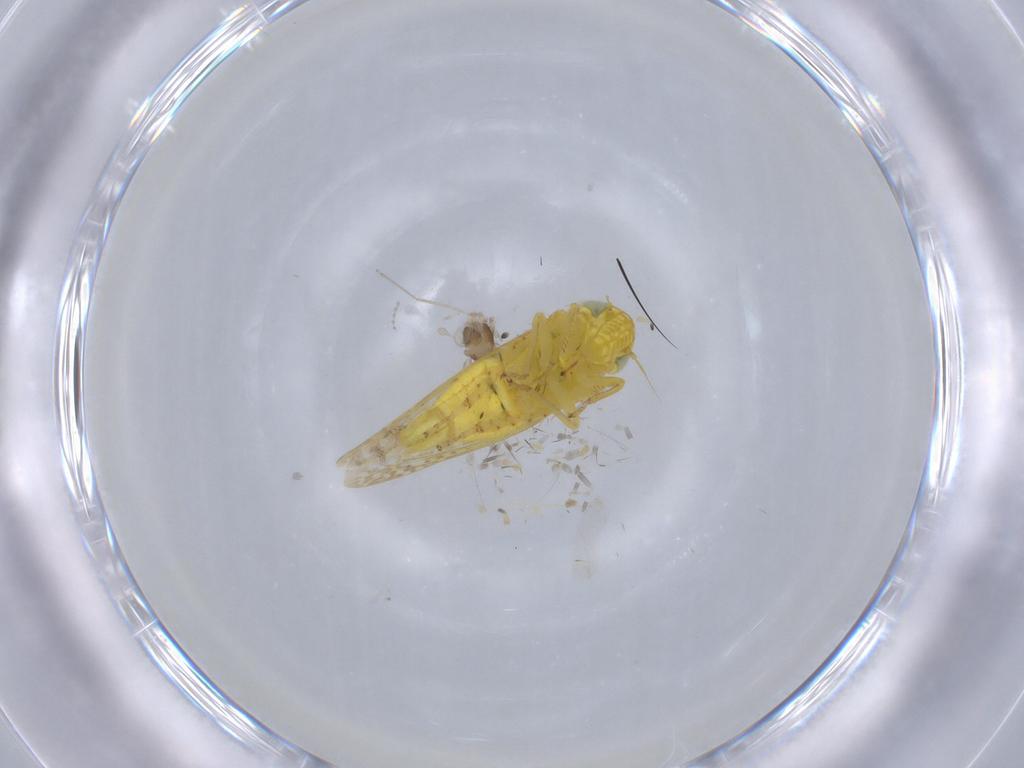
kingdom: Animalia
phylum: Arthropoda
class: Insecta
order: Hemiptera
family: Cicadellidae
